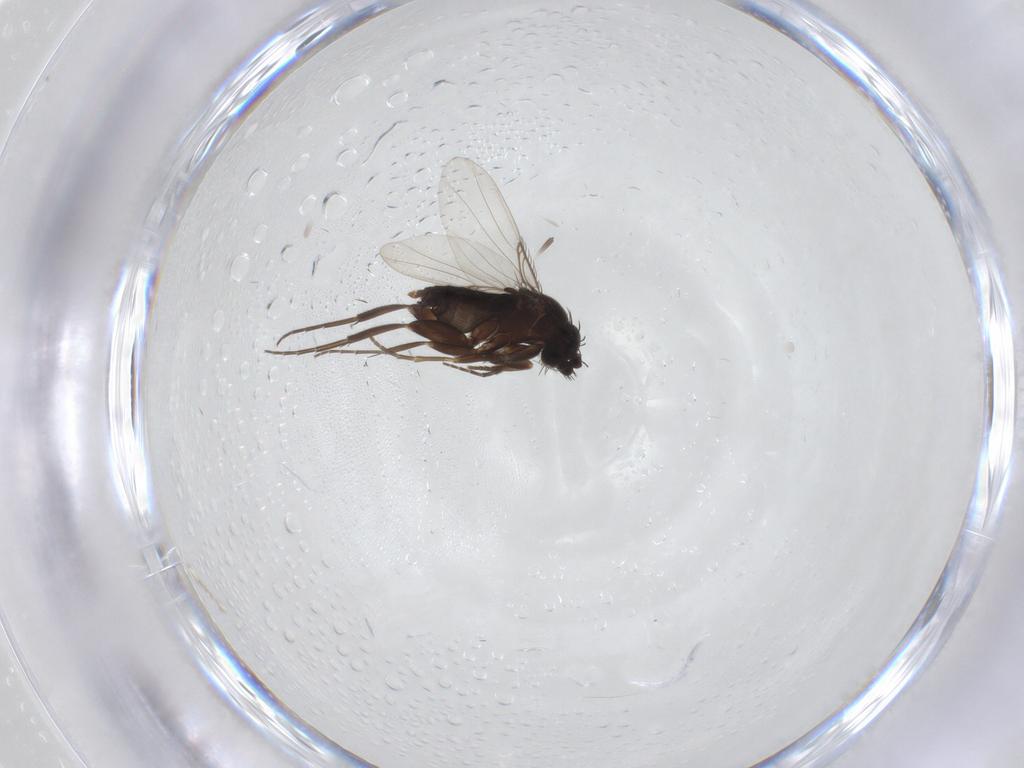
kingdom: Animalia
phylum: Arthropoda
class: Insecta
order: Diptera
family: Phoridae
